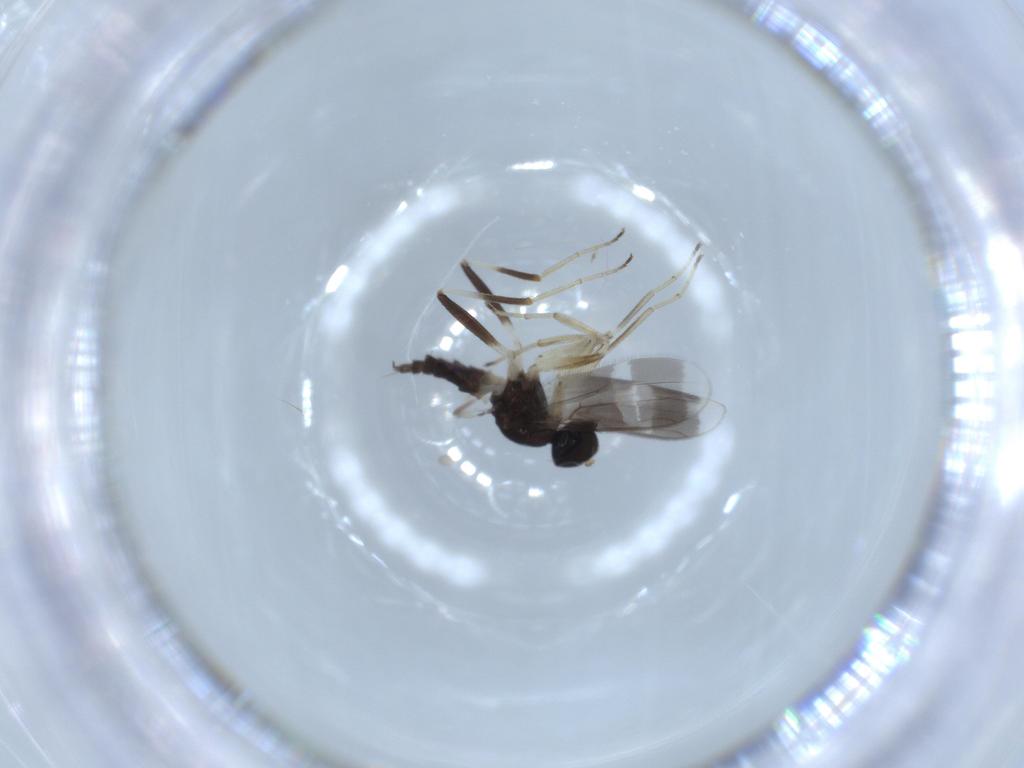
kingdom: Animalia
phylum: Arthropoda
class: Insecta
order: Diptera
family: Hybotidae
